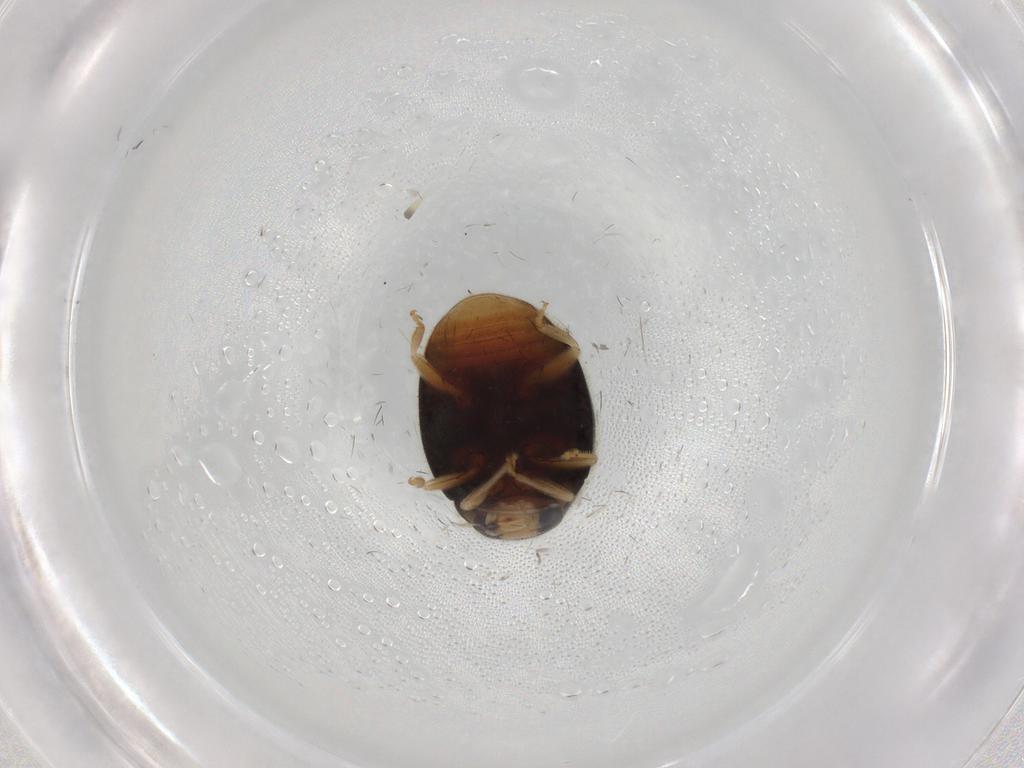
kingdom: Animalia
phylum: Arthropoda
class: Insecta
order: Coleoptera
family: Coccinellidae
